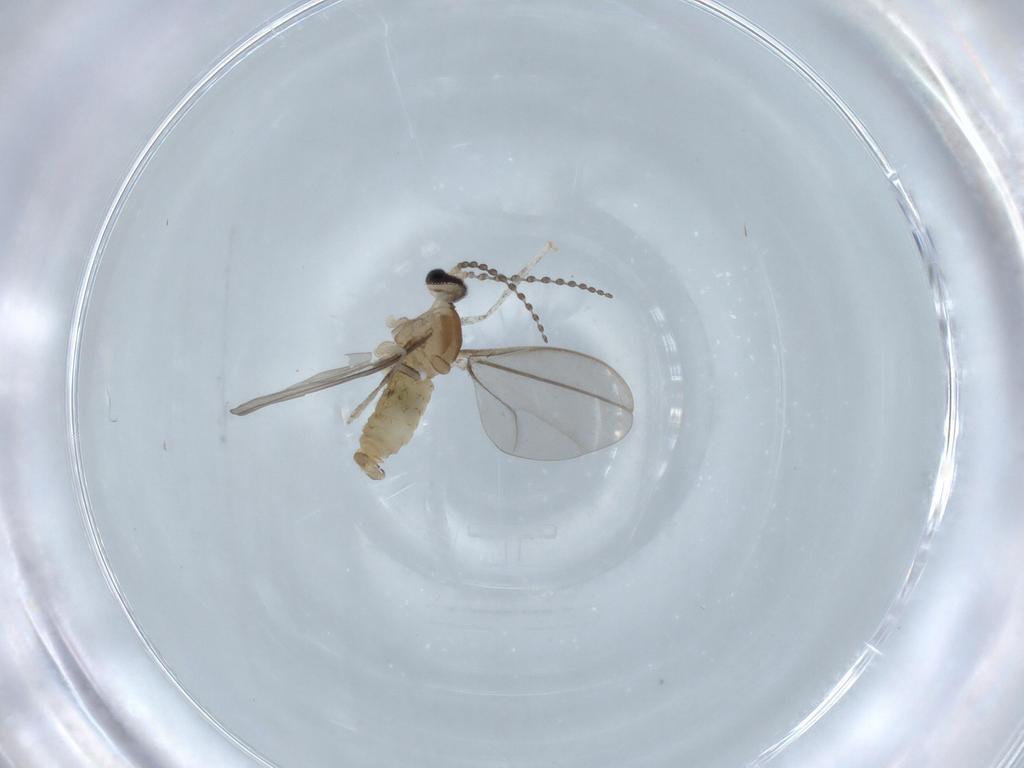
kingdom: Animalia
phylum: Arthropoda
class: Insecta
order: Diptera
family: Cecidomyiidae
